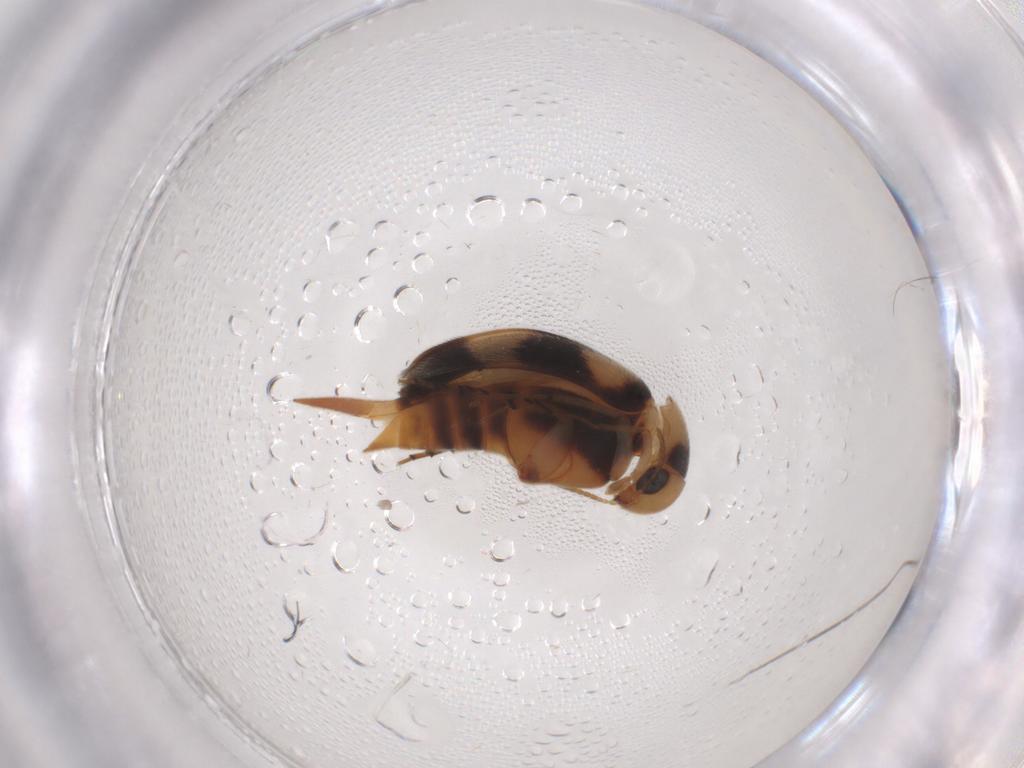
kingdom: Animalia
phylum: Arthropoda
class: Insecta
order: Coleoptera
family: Mordellidae
